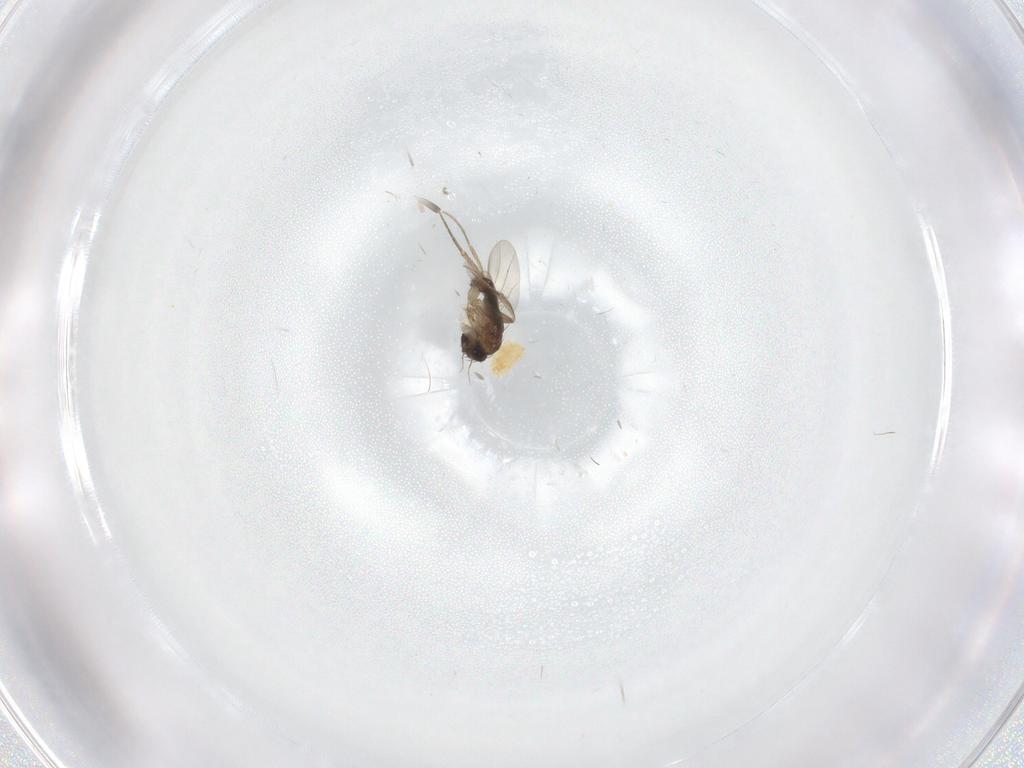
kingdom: Animalia
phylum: Arthropoda
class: Insecta
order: Diptera
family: Phoridae
